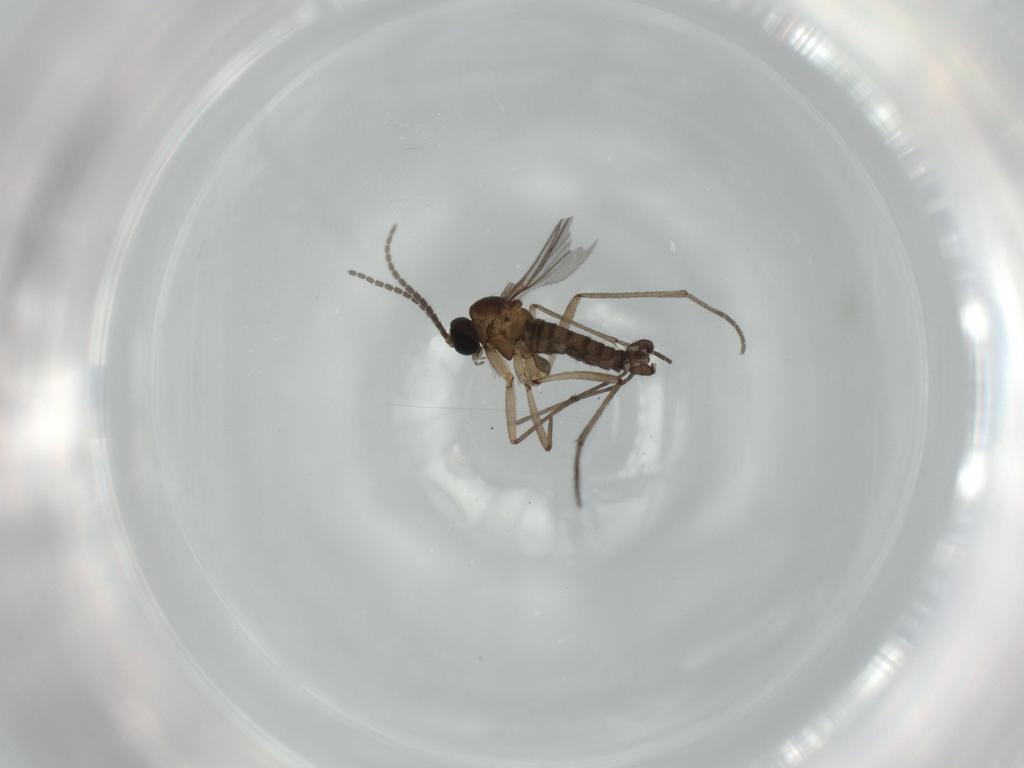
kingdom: Animalia
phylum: Arthropoda
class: Insecta
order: Diptera
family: Sciaridae
